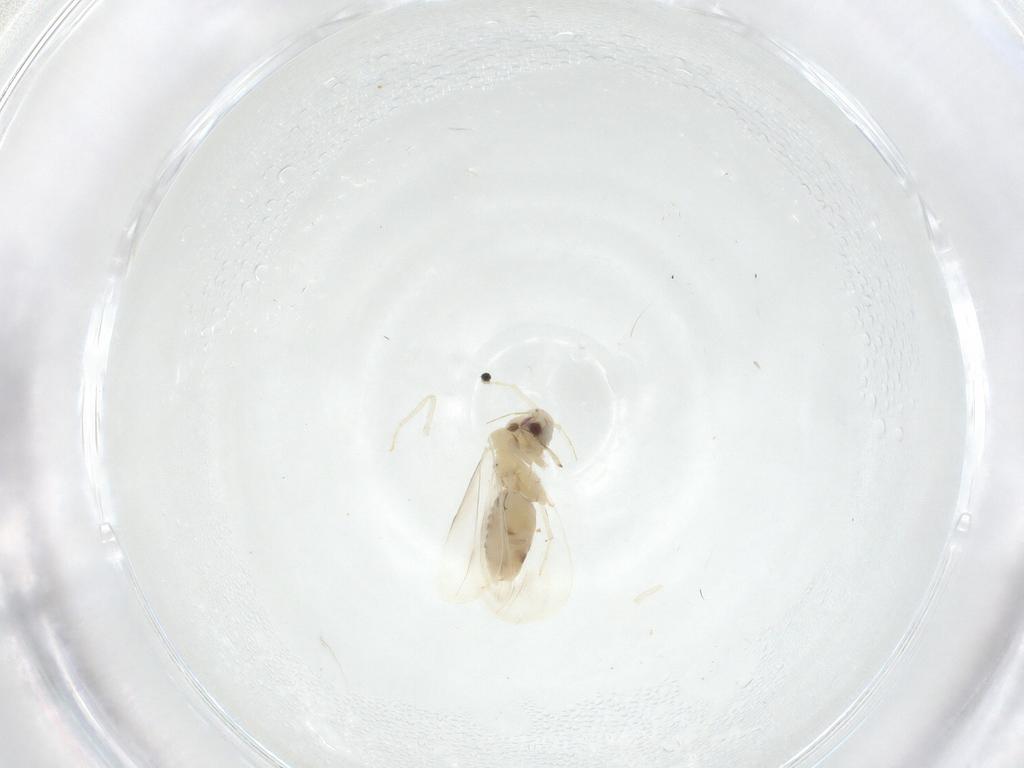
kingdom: Animalia
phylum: Arthropoda
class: Insecta
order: Hemiptera
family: Aleyrodidae
